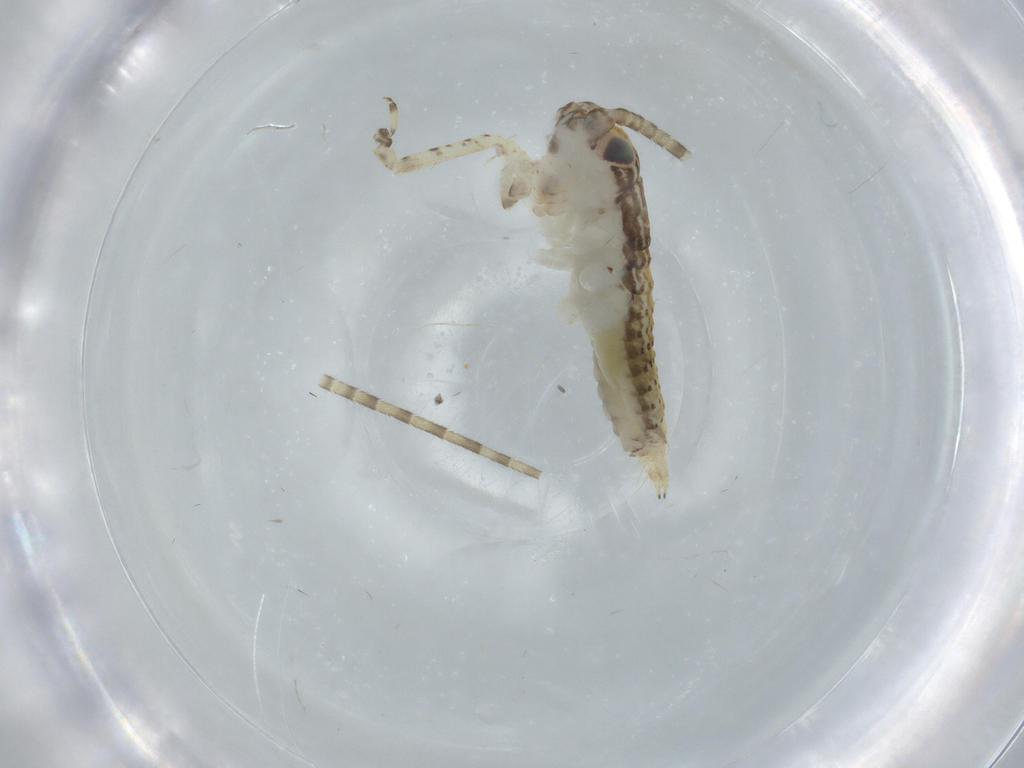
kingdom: Animalia
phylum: Arthropoda
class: Insecta
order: Orthoptera
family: Gryllidae
